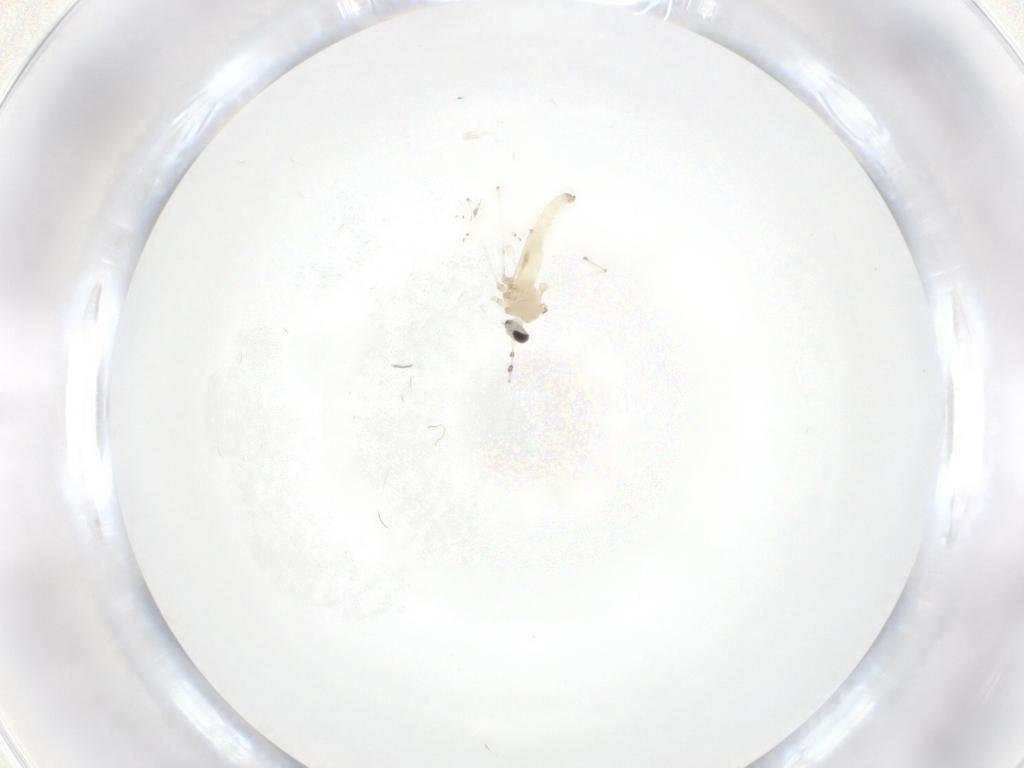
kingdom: Animalia
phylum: Arthropoda
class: Insecta
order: Diptera
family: Cecidomyiidae
